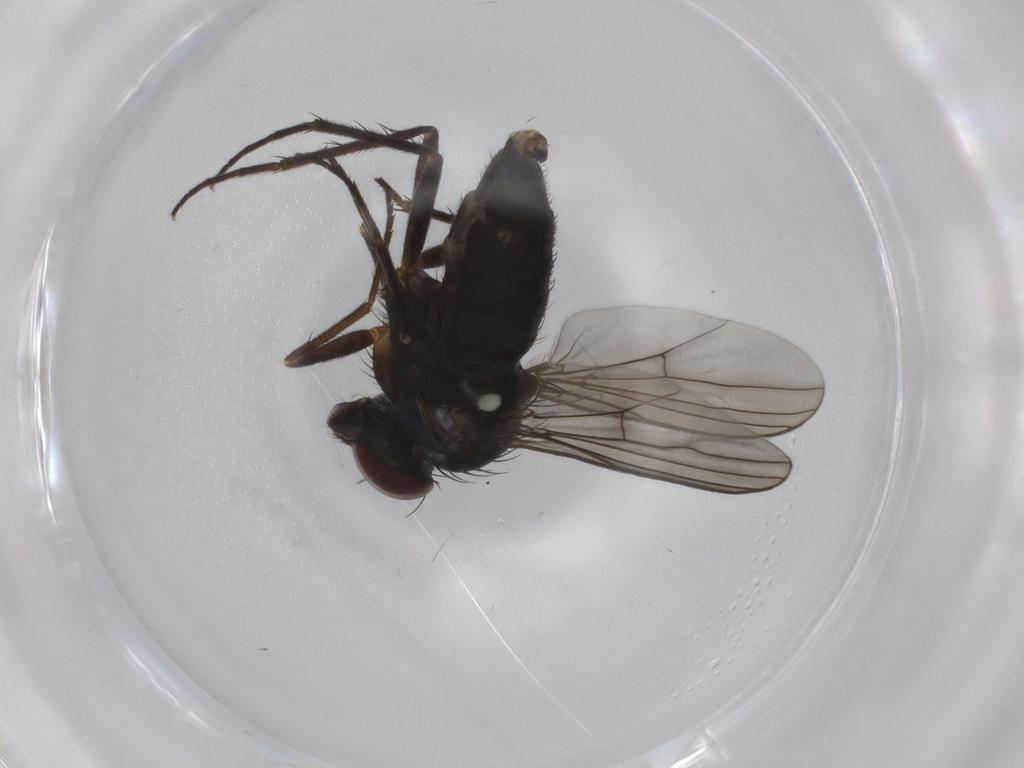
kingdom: Animalia
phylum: Arthropoda
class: Insecta
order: Diptera
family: Dolichopodidae
